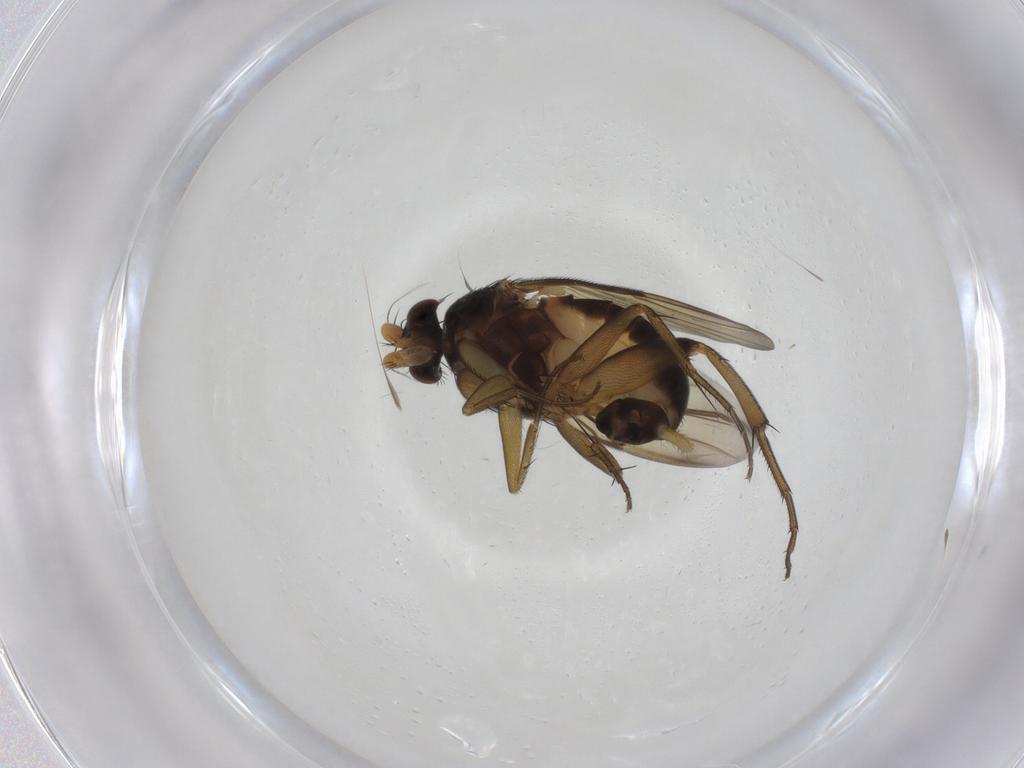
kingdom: Animalia
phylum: Arthropoda
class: Insecta
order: Diptera
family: Phoridae
